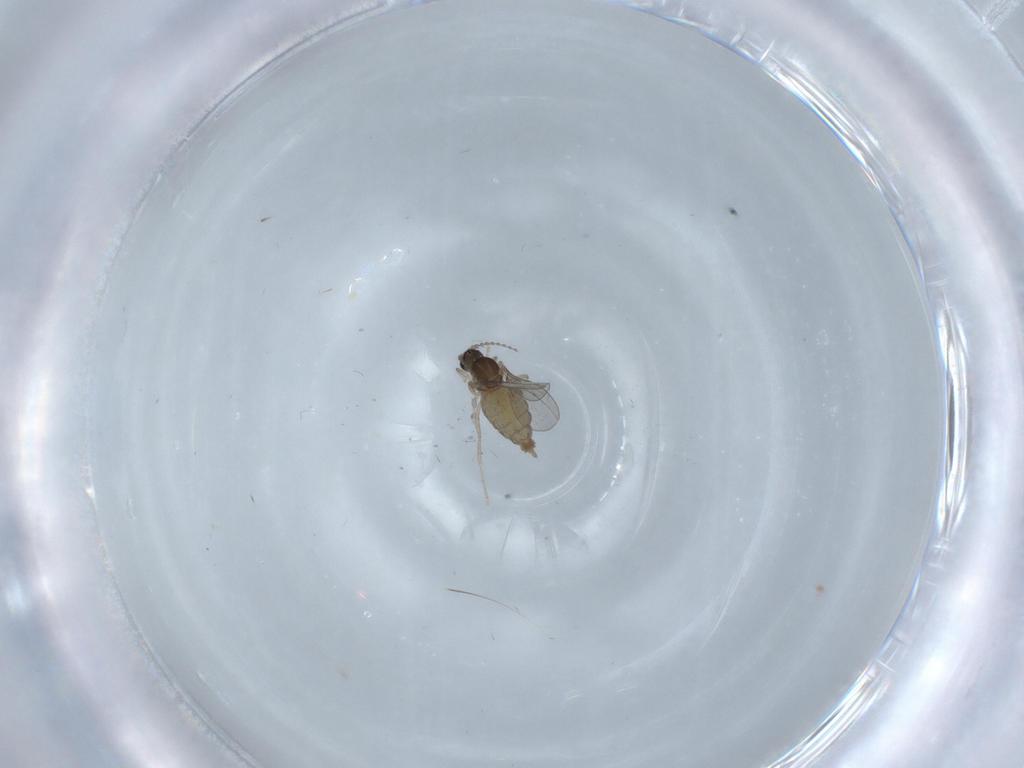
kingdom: Animalia
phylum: Arthropoda
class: Insecta
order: Diptera
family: Cecidomyiidae
